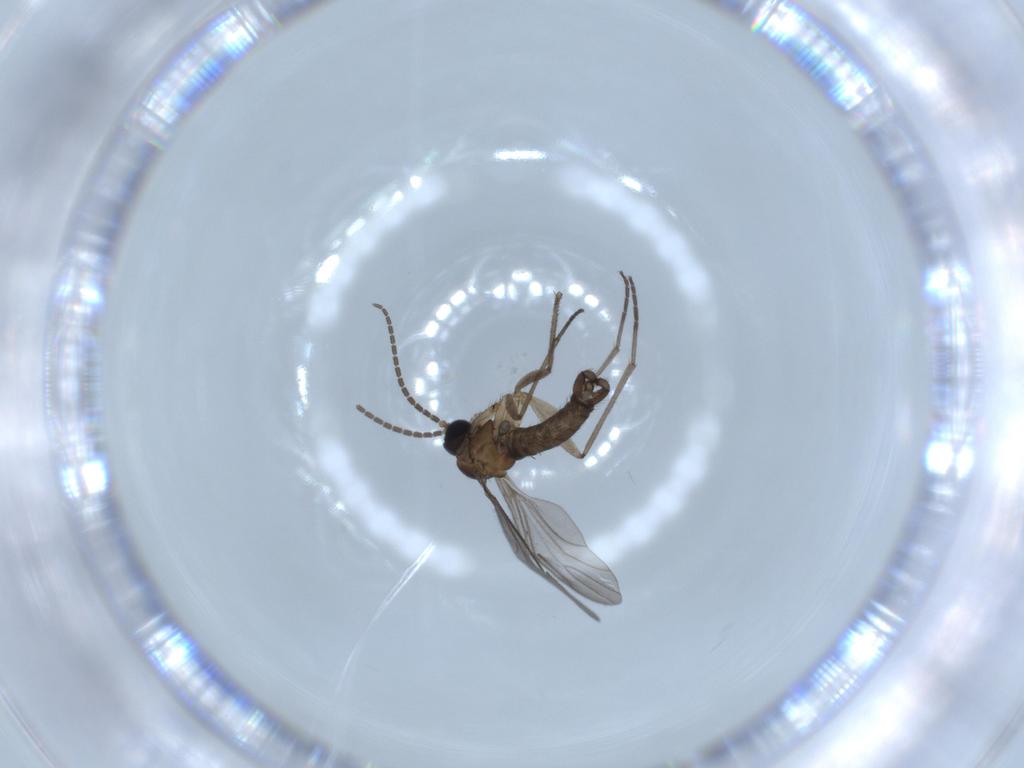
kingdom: Animalia
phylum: Arthropoda
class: Insecta
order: Diptera
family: Sciaridae
